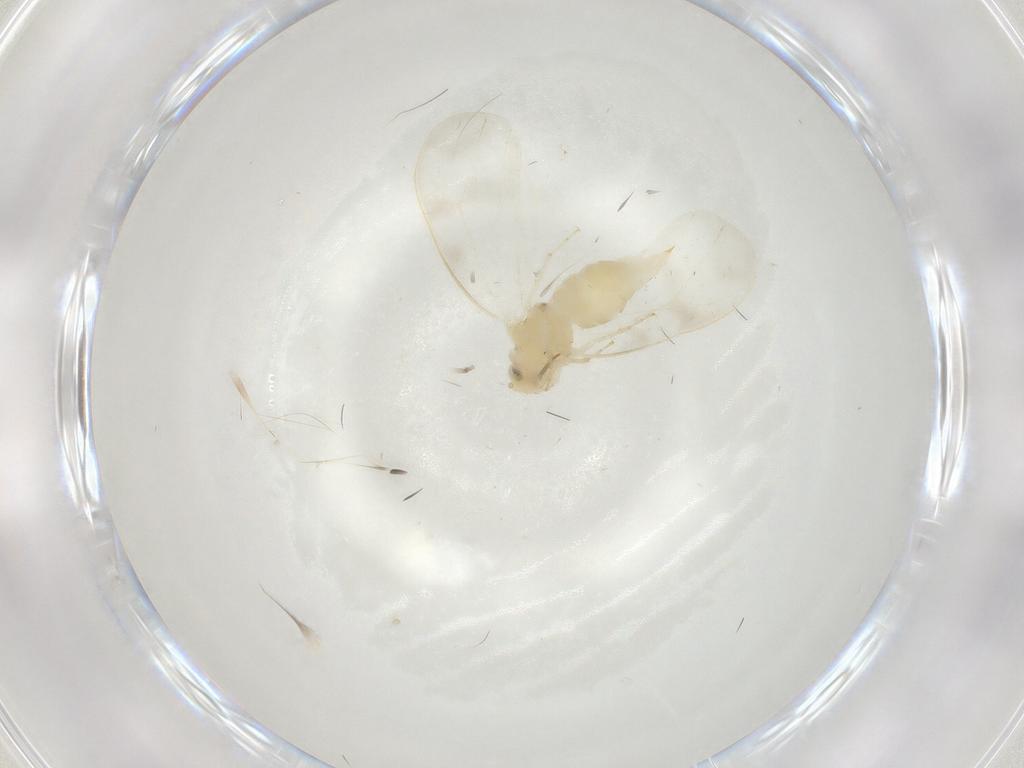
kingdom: Animalia
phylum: Arthropoda
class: Insecta
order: Hemiptera
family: Aleyrodidae
